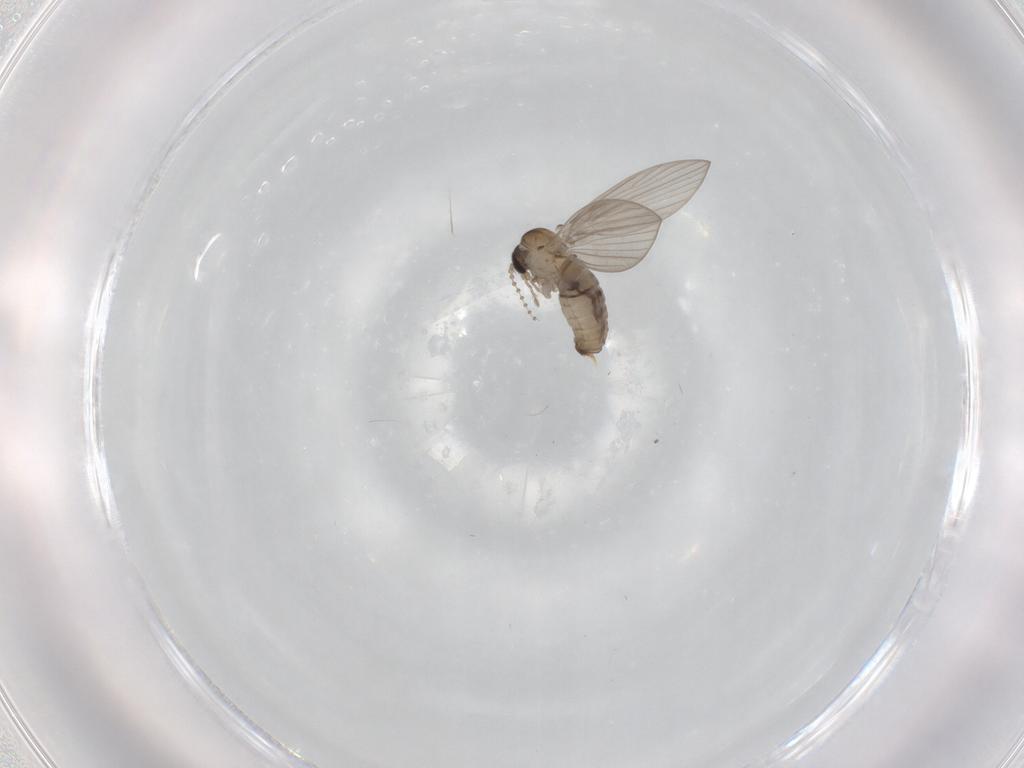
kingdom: Animalia
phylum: Arthropoda
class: Insecta
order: Diptera
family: Psychodidae
